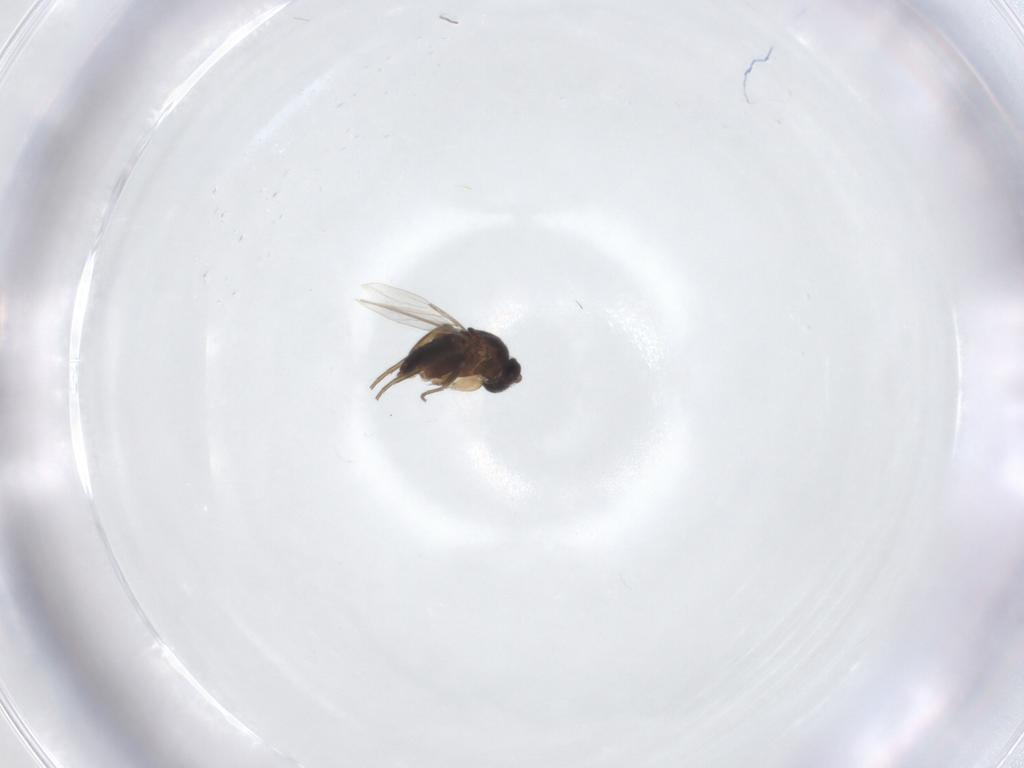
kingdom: Animalia
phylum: Arthropoda
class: Insecta
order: Diptera
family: Phoridae
